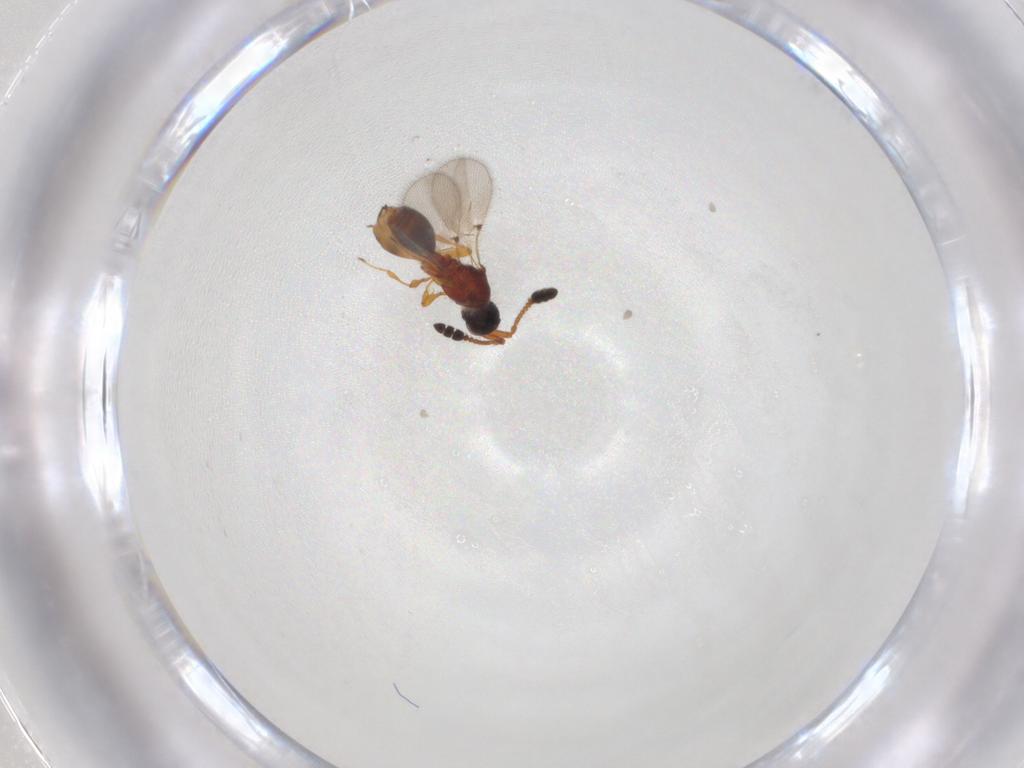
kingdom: Animalia
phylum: Arthropoda
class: Insecta
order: Hymenoptera
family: Diapriidae
